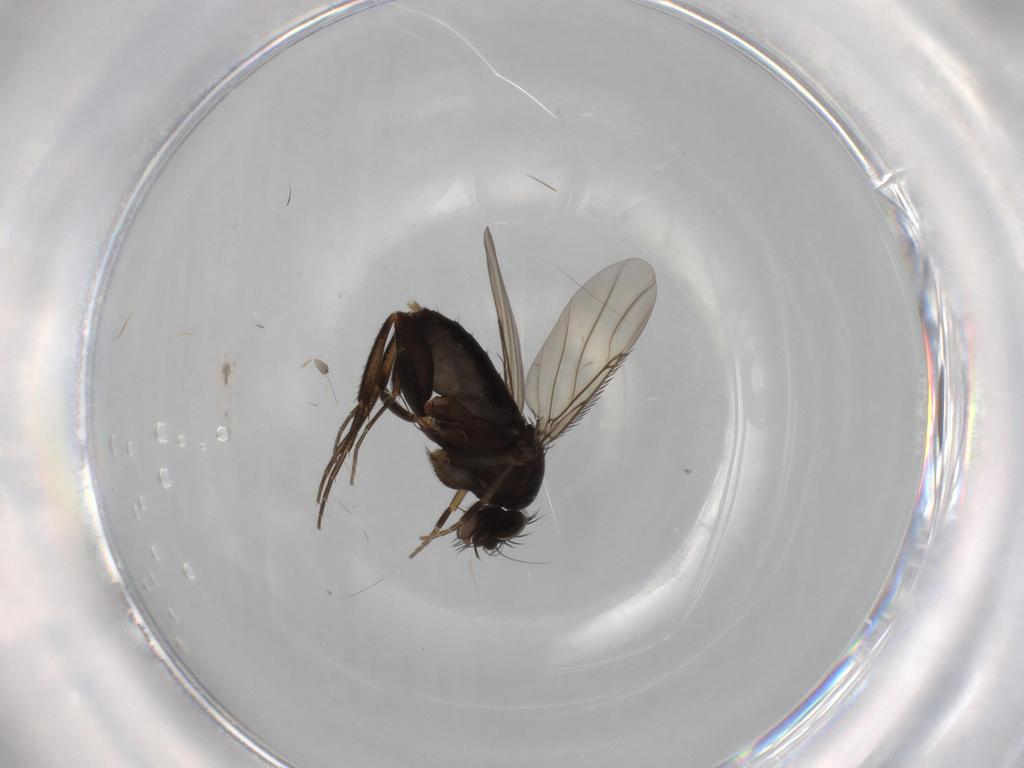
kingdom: Animalia
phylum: Arthropoda
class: Insecta
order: Diptera
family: Phoridae
